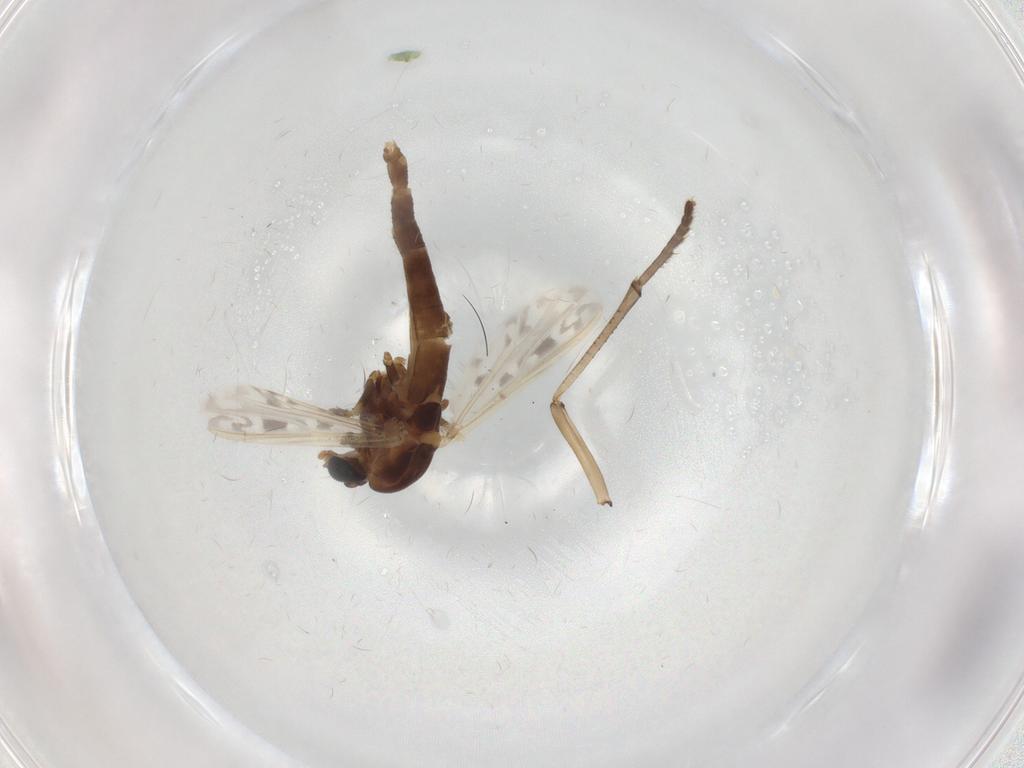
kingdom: Animalia
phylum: Arthropoda
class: Insecta
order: Diptera
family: Chaoboridae
